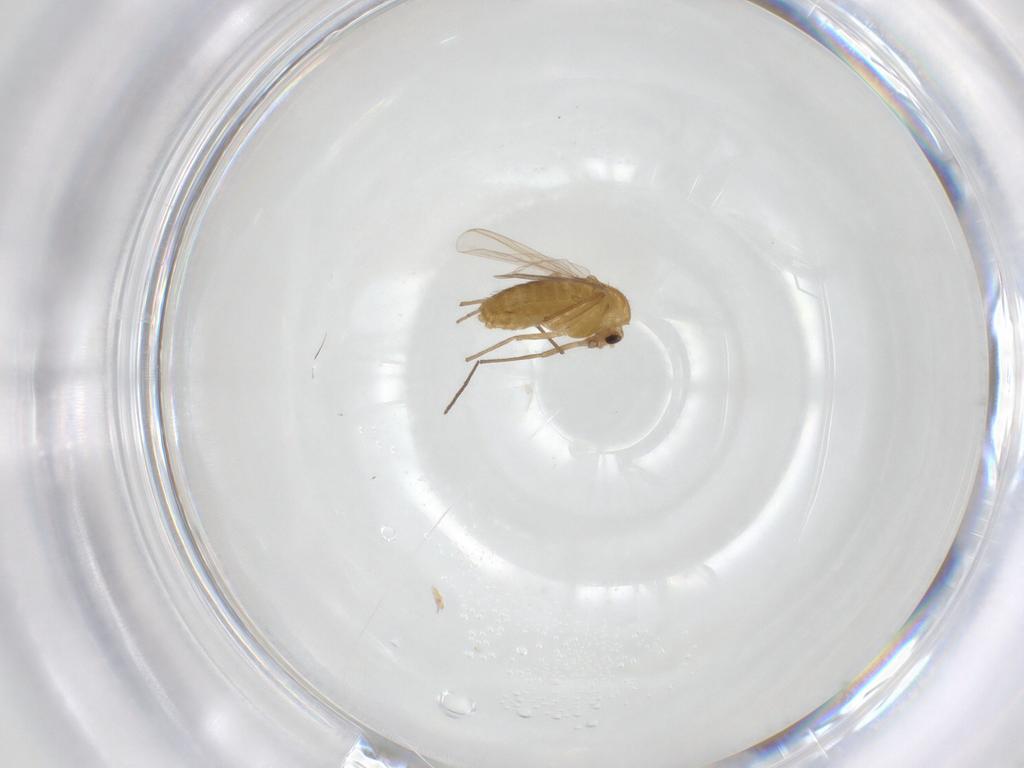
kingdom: Animalia
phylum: Arthropoda
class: Insecta
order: Diptera
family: Chironomidae
